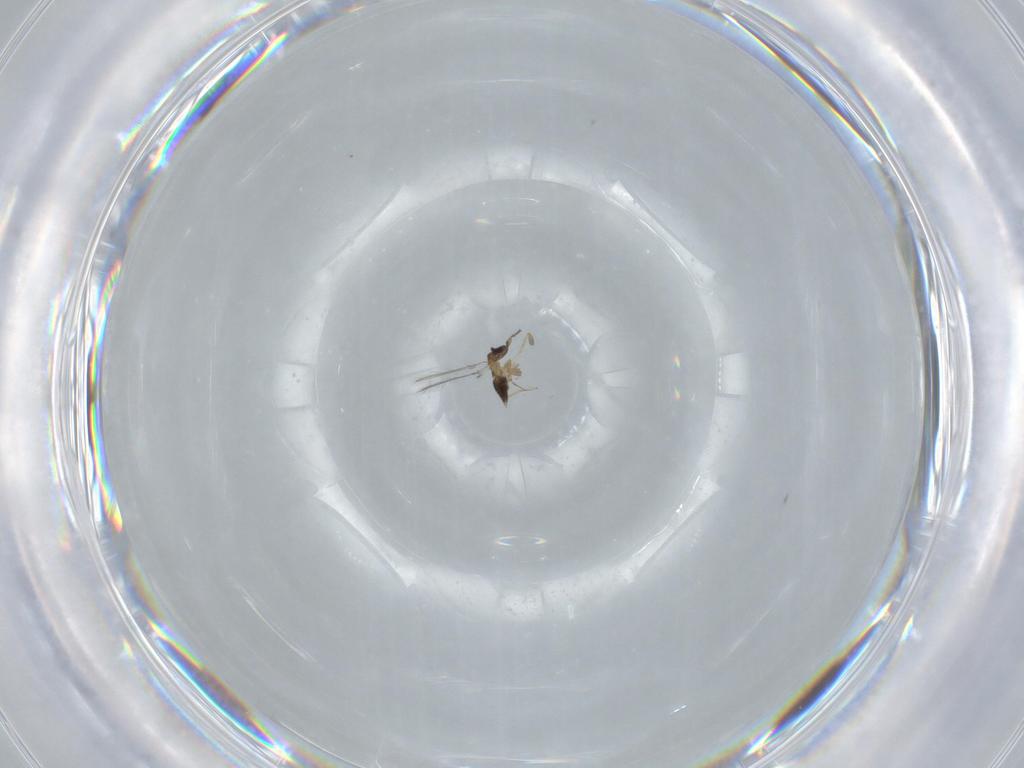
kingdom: Animalia
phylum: Arthropoda
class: Insecta
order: Hymenoptera
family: Mymaridae
